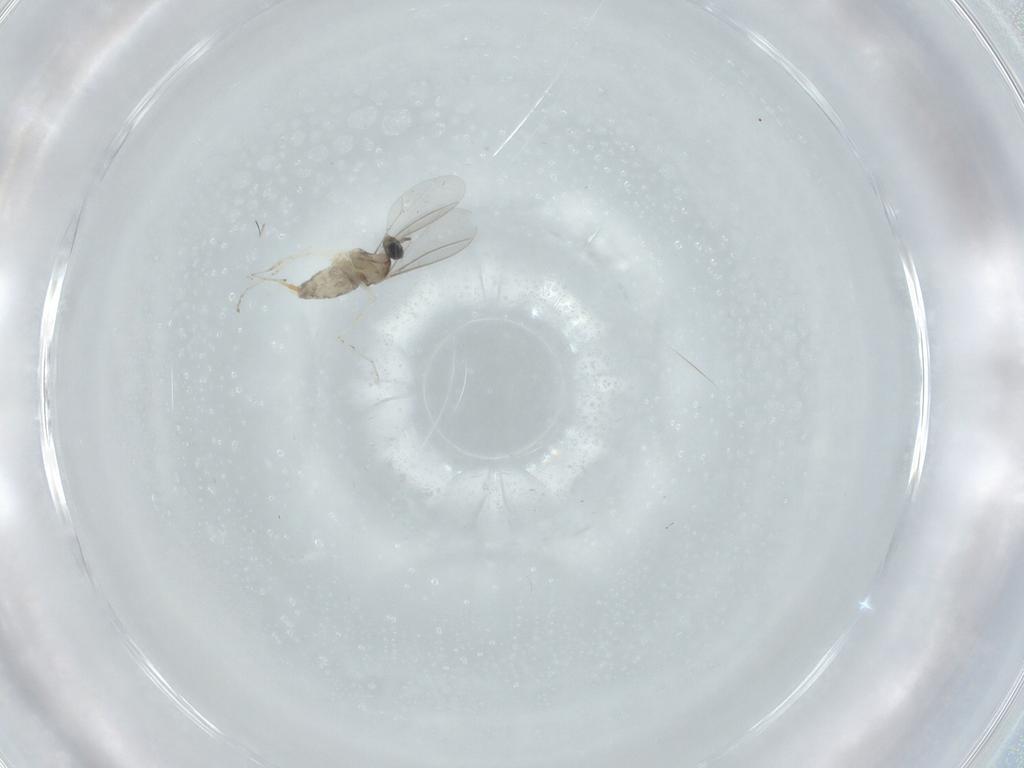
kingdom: Animalia
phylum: Arthropoda
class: Insecta
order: Diptera
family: Cecidomyiidae
